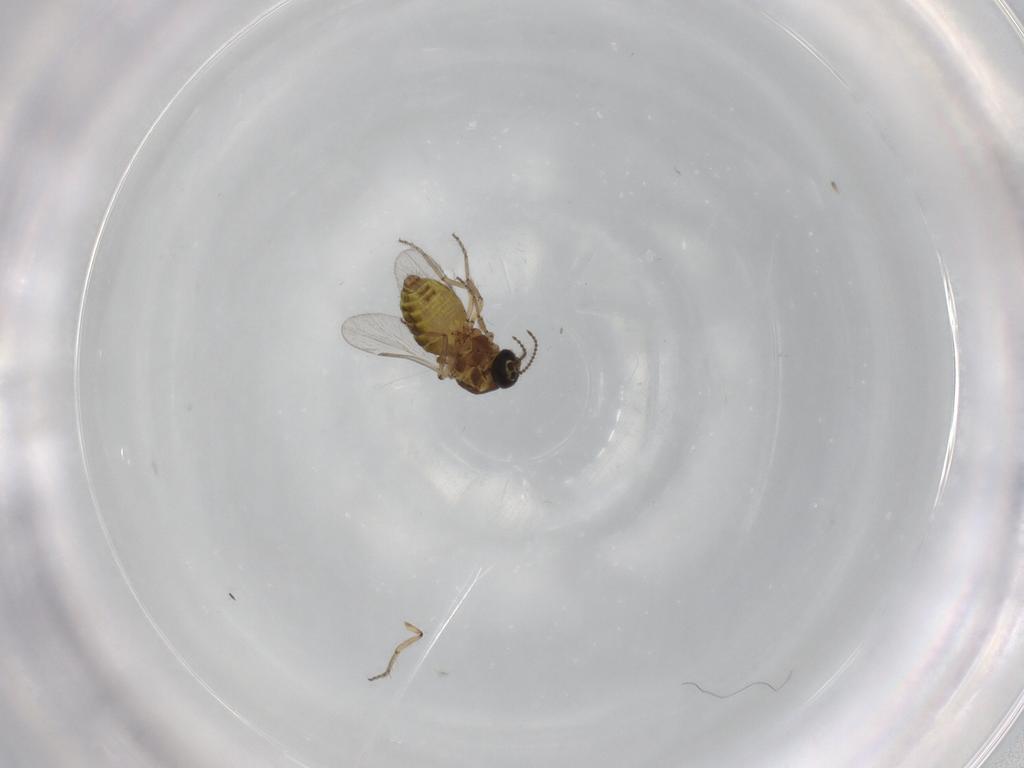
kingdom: Animalia
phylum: Arthropoda
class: Insecta
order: Diptera
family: Ceratopogonidae
